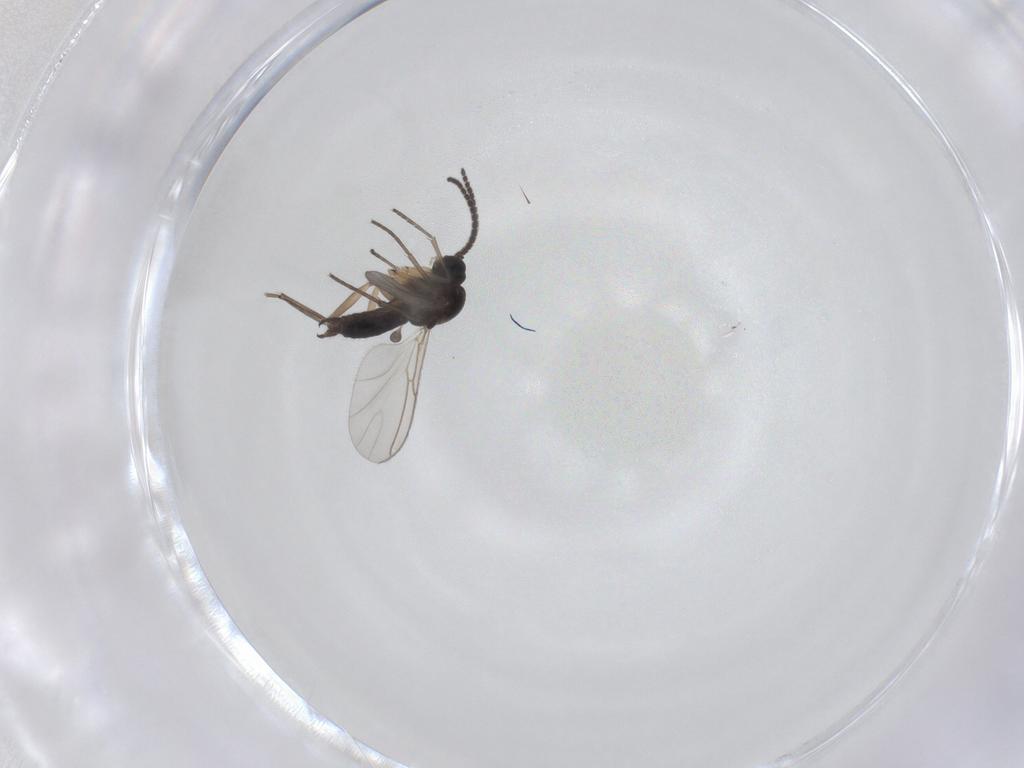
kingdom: Animalia
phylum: Arthropoda
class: Insecta
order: Diptera
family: Sciaridae
